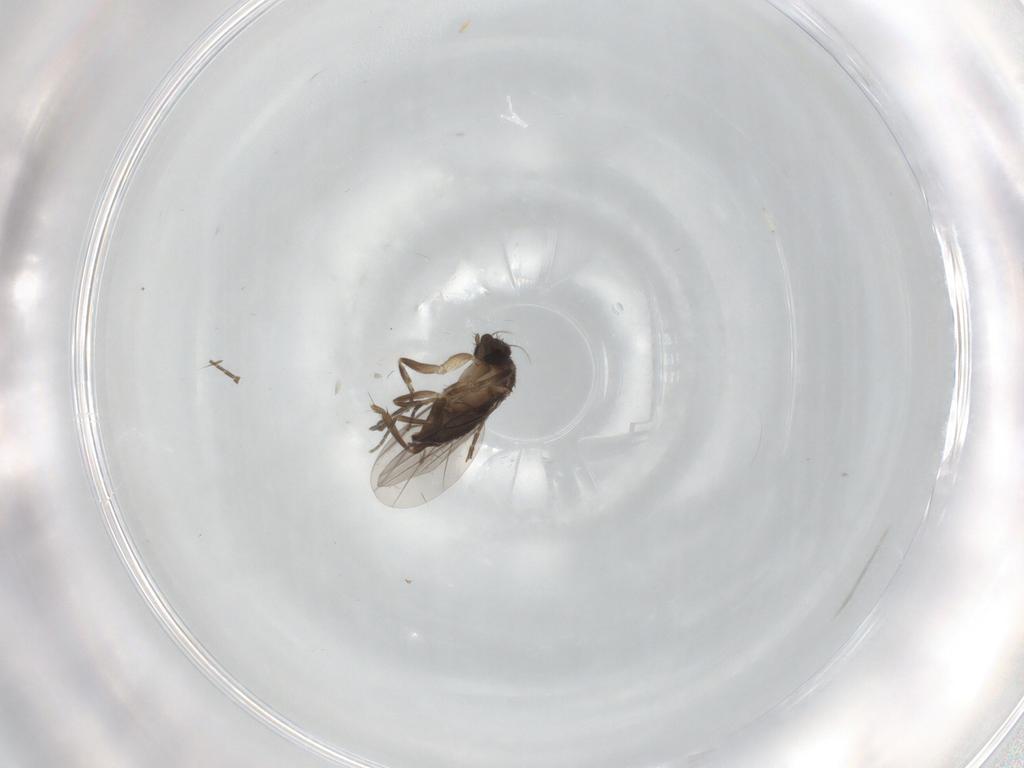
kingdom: Animalia
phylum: Arthropoda
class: Insecta
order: Diptera
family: Phoridae
